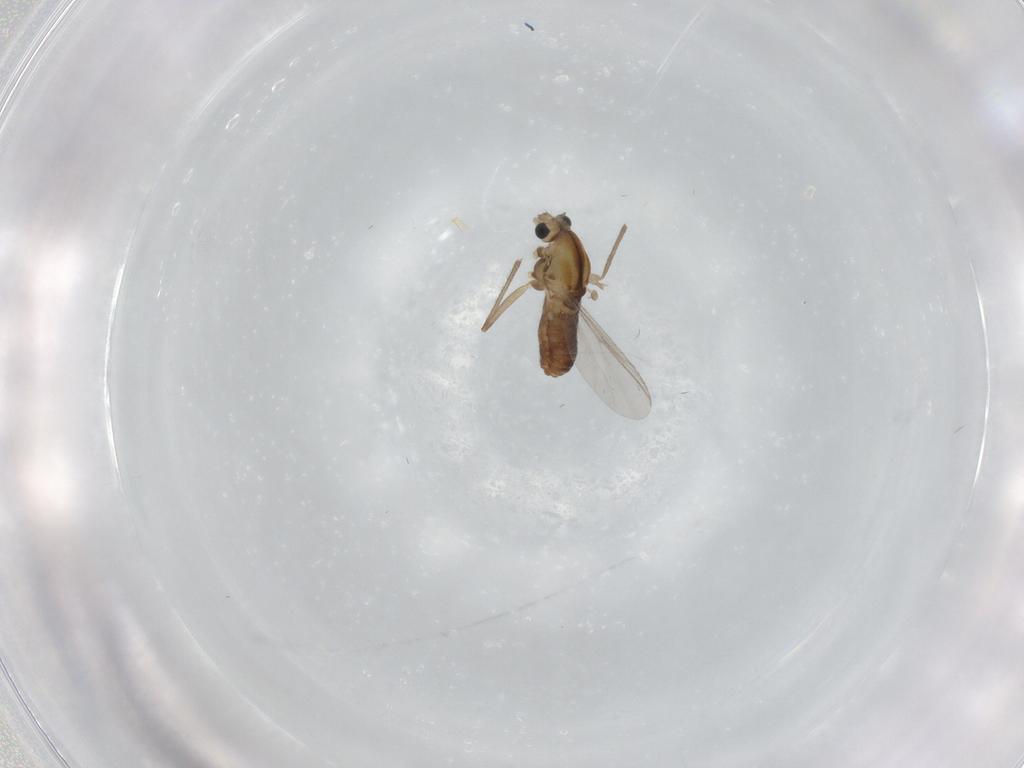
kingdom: Animalia
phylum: Arthropoda
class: Insecta
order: Diptera
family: Chironomidae
